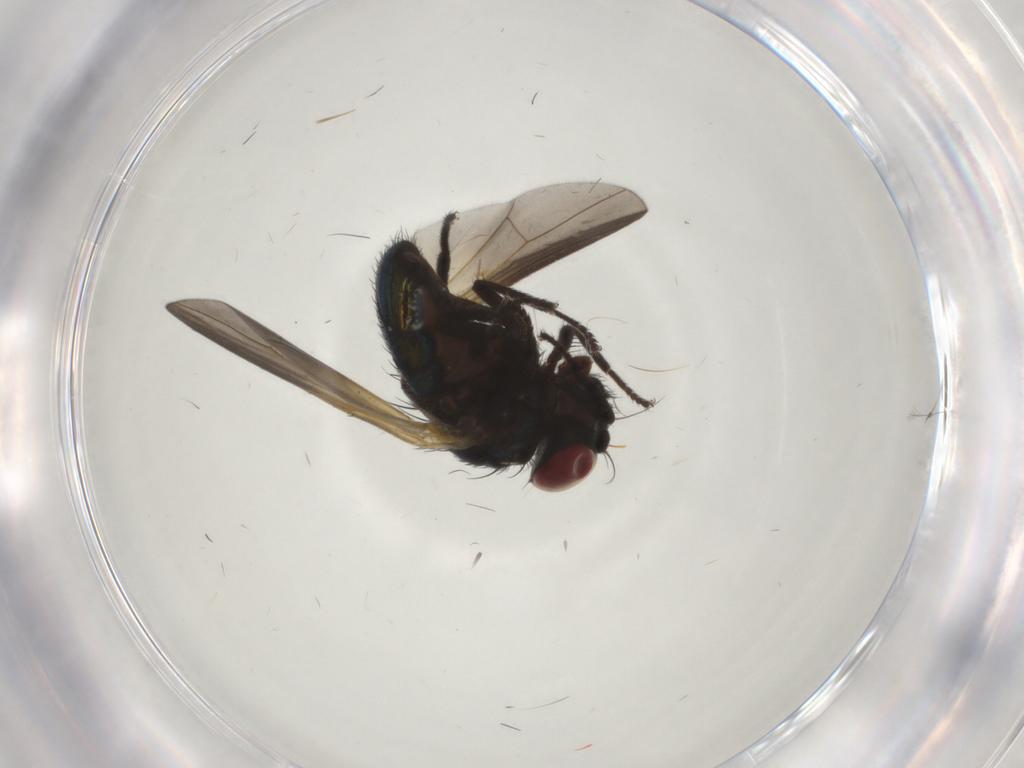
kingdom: Animalia
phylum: Arthropoda
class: Insecta
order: Diptera
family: Lonchaeidae
